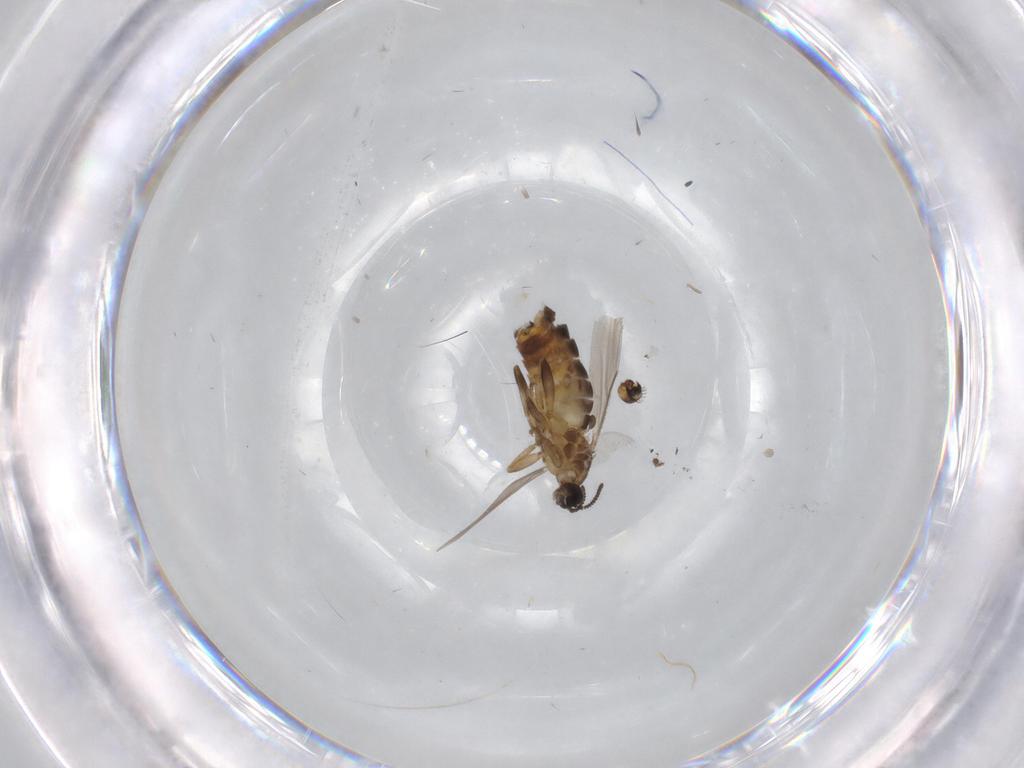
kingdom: Animalia
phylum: Arthropoda
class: Insecta
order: Diptera
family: Scatopsidae
